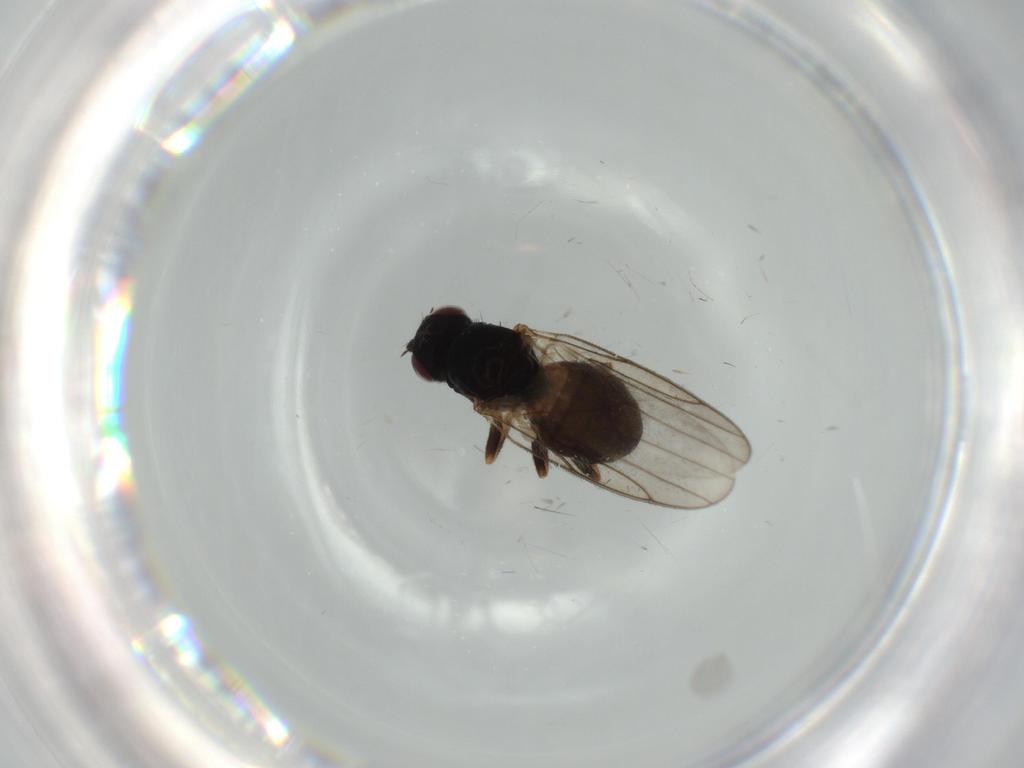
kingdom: Animalia
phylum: Arthropoda
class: Insecta
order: Diptera
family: Chloropidae
